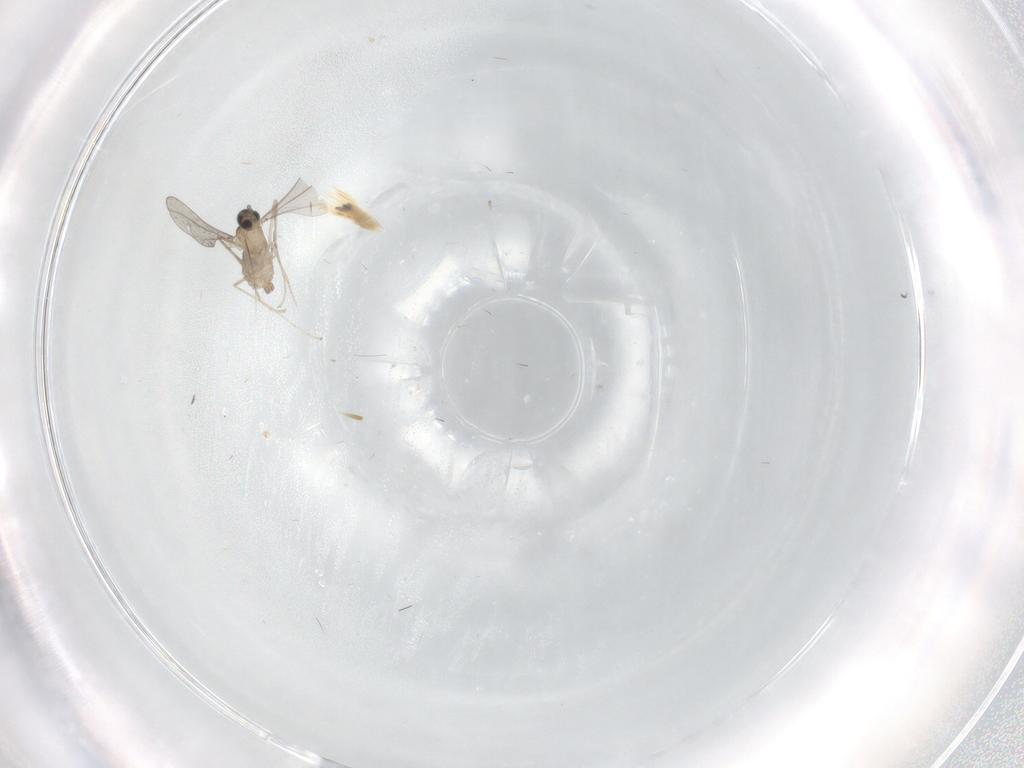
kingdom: Animalia
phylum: Arthropoda
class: Insecta
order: Diptera
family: Cecidomyiidae
